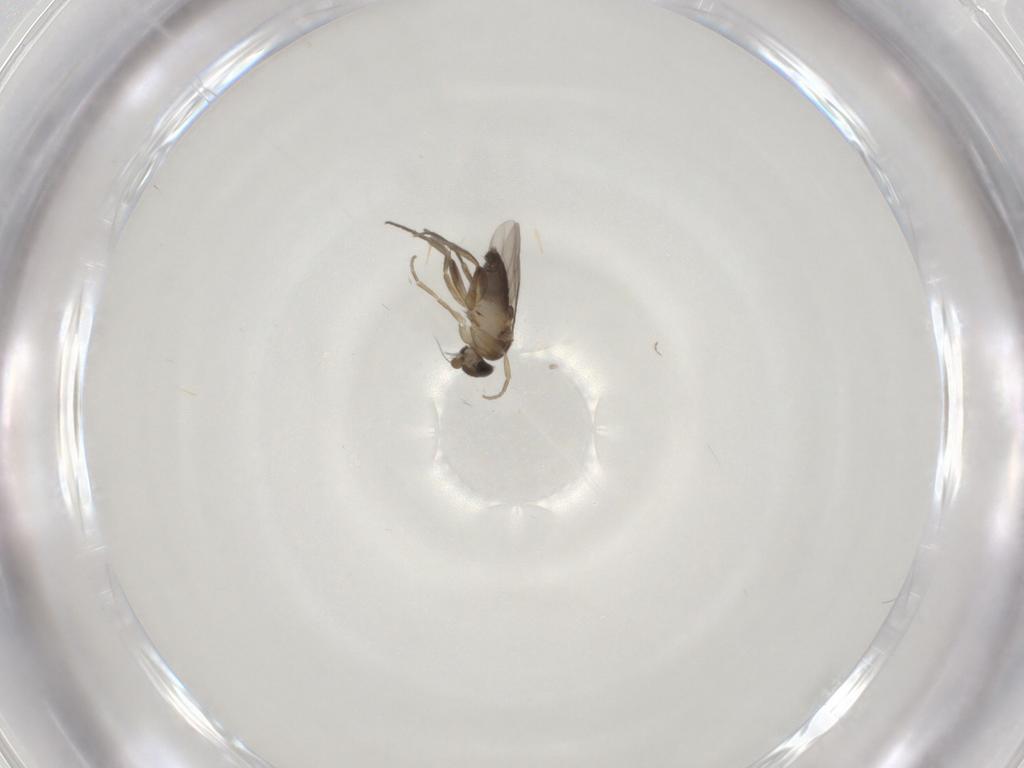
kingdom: Animalia
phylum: Arthropoda
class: Insecta
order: Diptera
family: Phoridae
